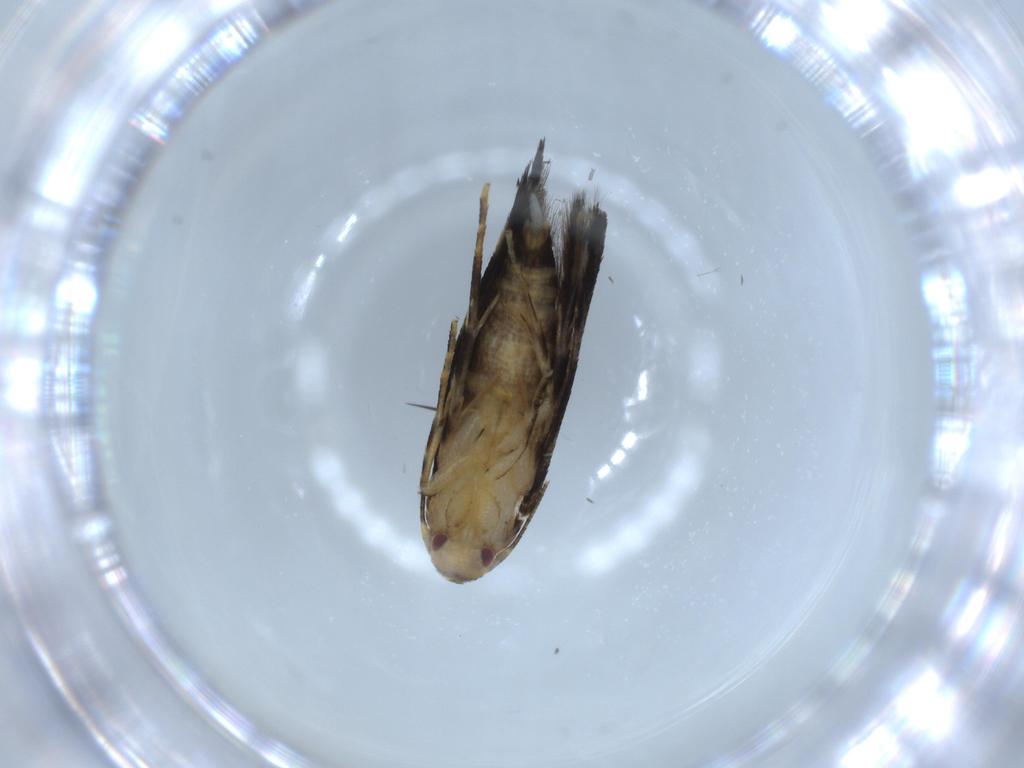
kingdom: Animalia
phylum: Arthropoda
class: Insecta
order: Lepidoptera
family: Momphidae
